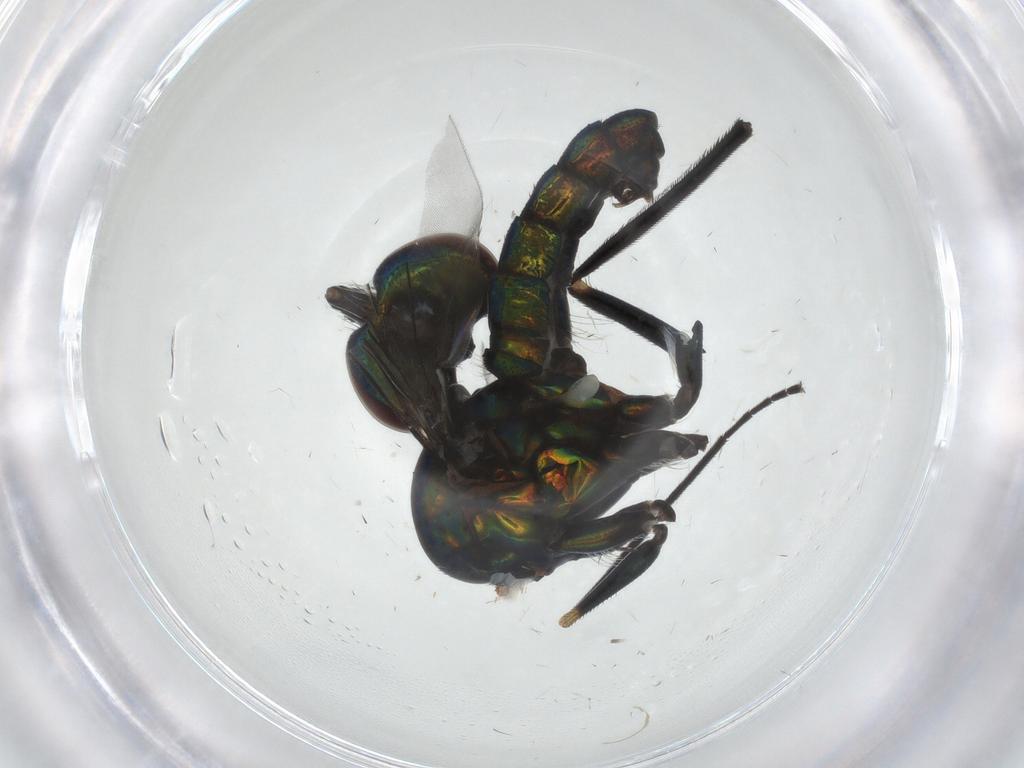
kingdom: Animalia
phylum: Arthropoda
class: Insecta
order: Diptera
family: Dolichopodidae
